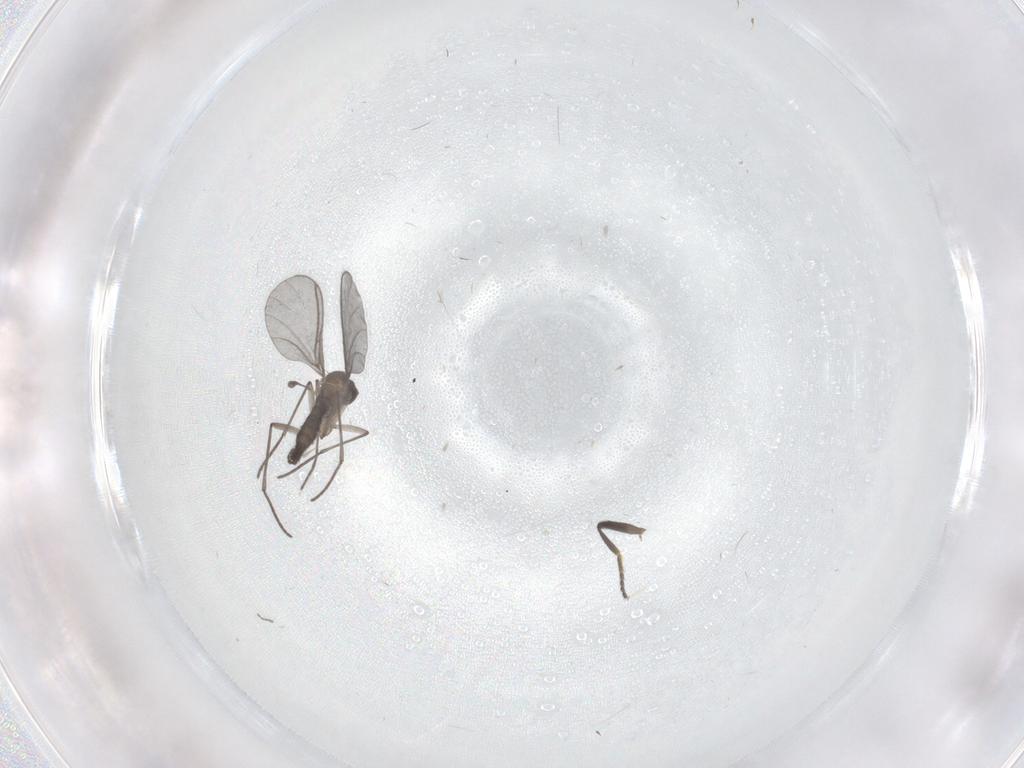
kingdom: Animalia
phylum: Arthropoda
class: Insecta
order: Diptera
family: Milichiidae
